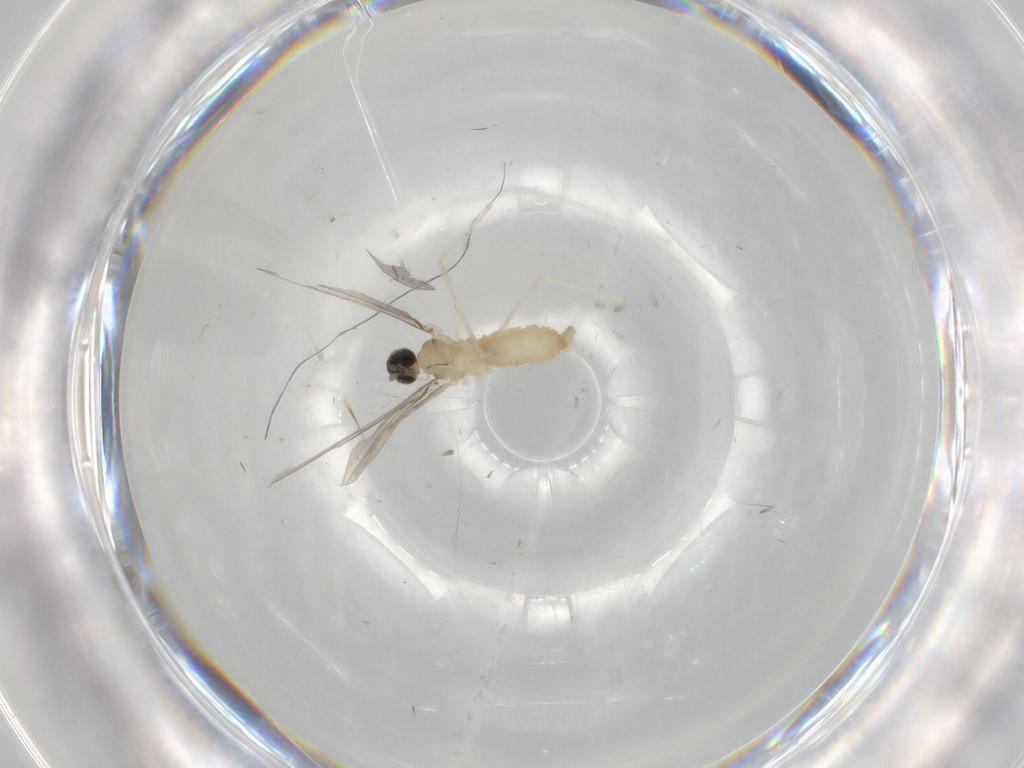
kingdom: Animalia
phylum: Arthropoda
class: Insecta
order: Diptera
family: Cecidomyiidae
